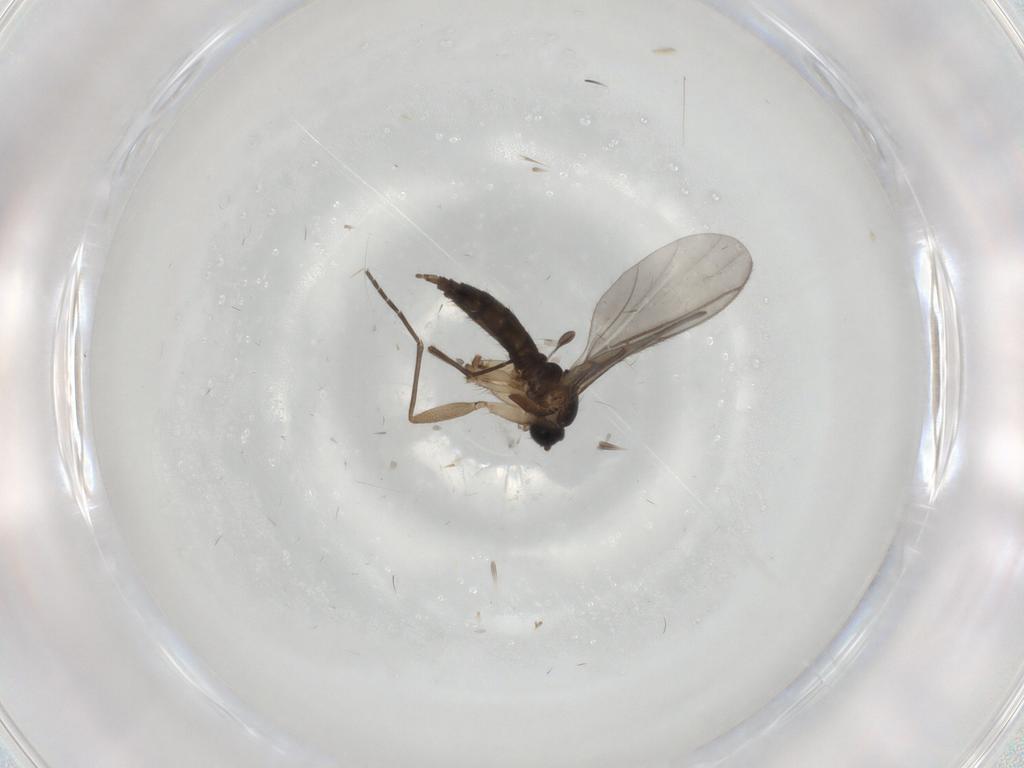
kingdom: Animalia
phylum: Arthropoda
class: Insecta
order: Diptera
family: Sciaridae
